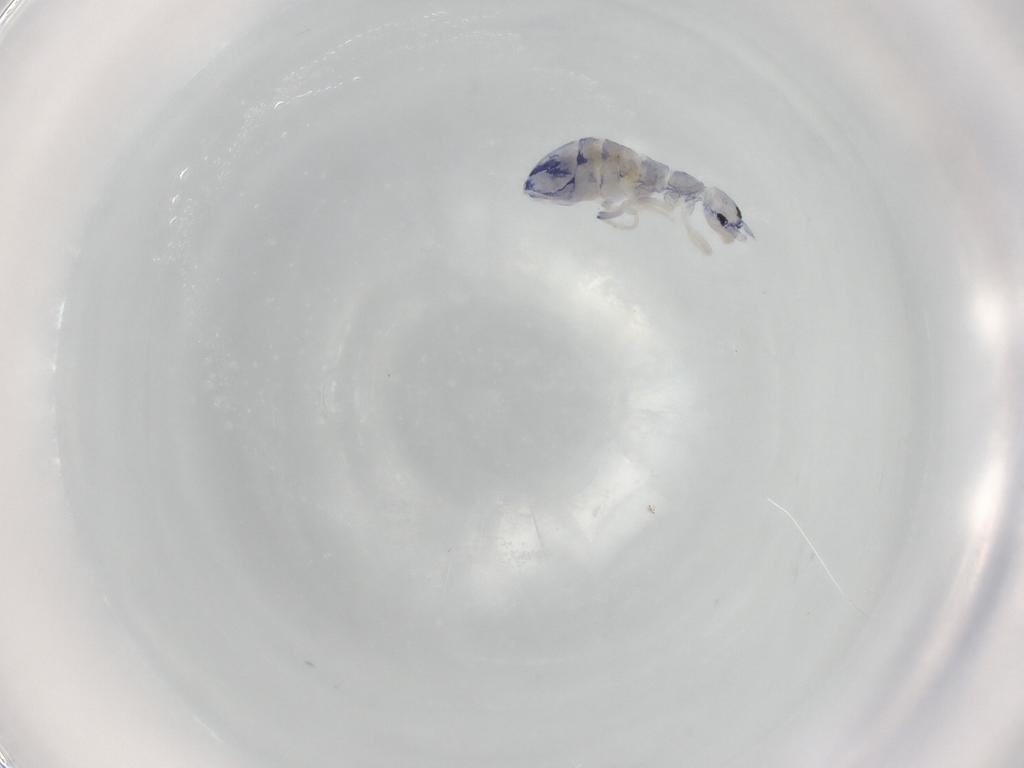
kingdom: Animalia
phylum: Arthropoda
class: Collembola
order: Entomobryomorpha
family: Entomobryidae
